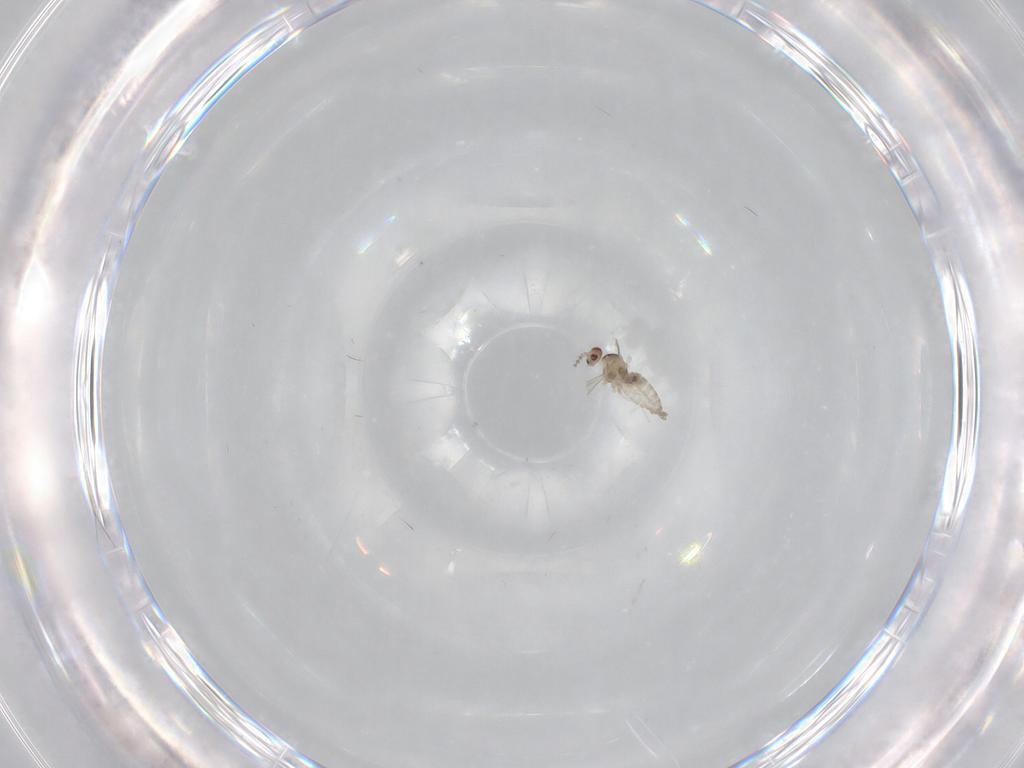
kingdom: Animalia
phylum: Arthropoda
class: Insecta
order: Diptera
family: Cecidomyiidae
